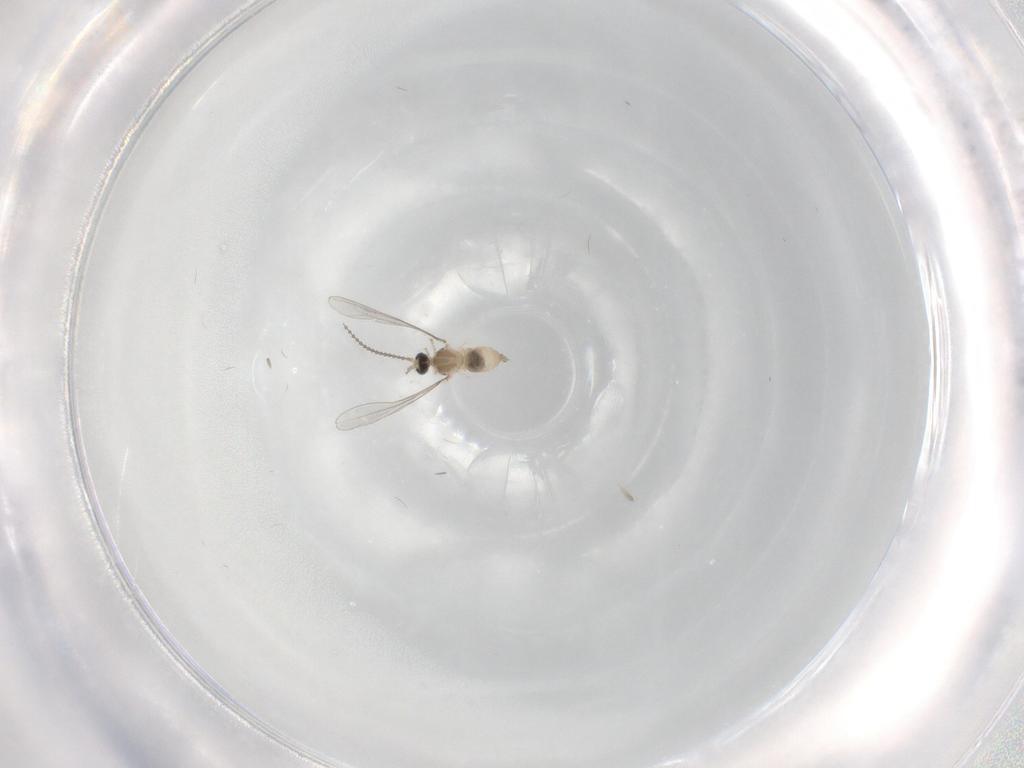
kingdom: Animalia
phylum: Arthropoda
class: Insecta
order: Diptera
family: Cecidomyiidae
